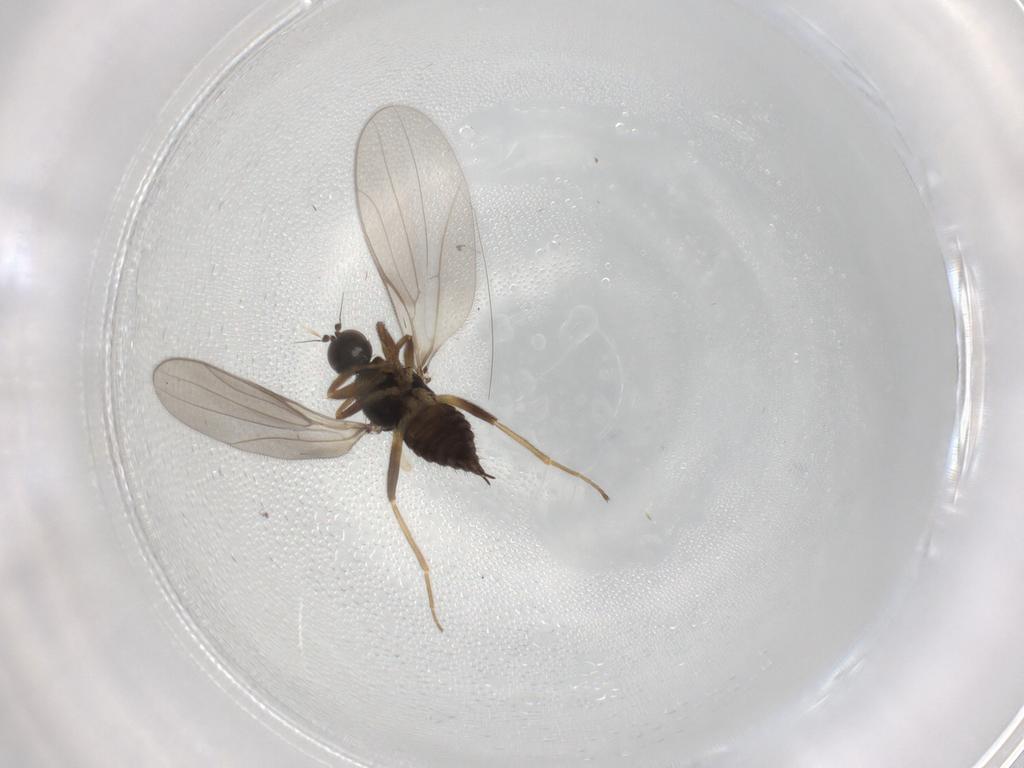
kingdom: Animalia
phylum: Arthropoda
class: Insecta
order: Diptera
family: Hybotidae
